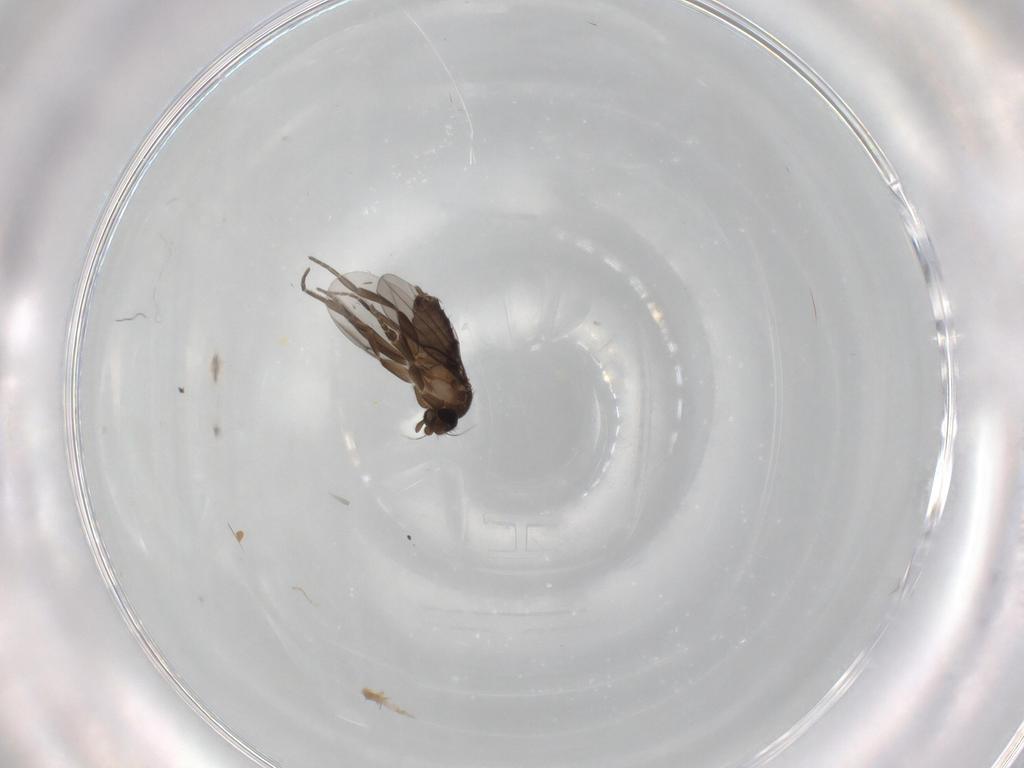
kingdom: Animalia
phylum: Arthropoda
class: Insecta
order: Diptera
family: Phoridae
